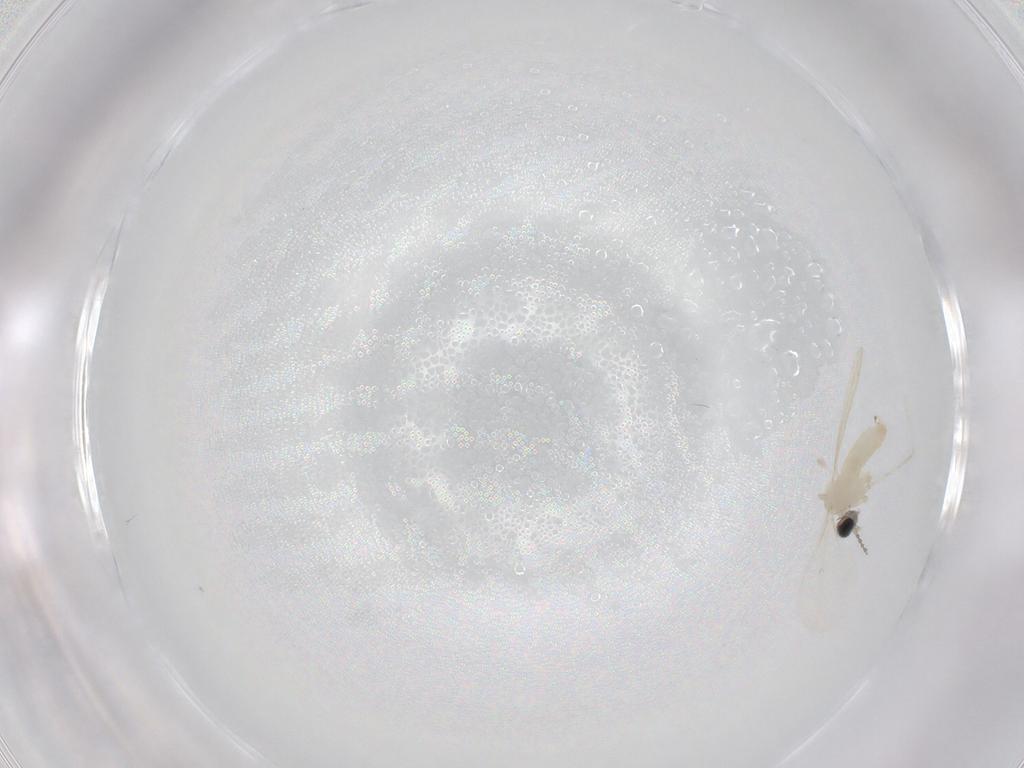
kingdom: Animalia
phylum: Arthropoda
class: Insecta
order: Diptera
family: Cecidomyiidae
